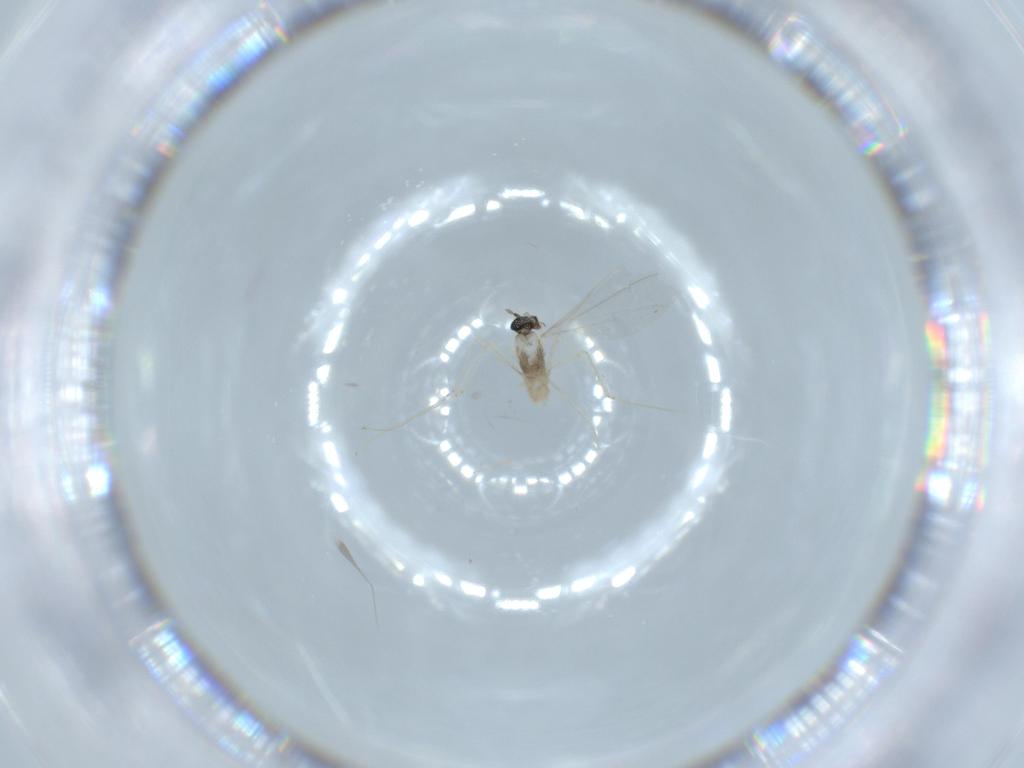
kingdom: Animalia
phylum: Arthropoda
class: Insecta
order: Diptera
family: Cecidomyiidae
